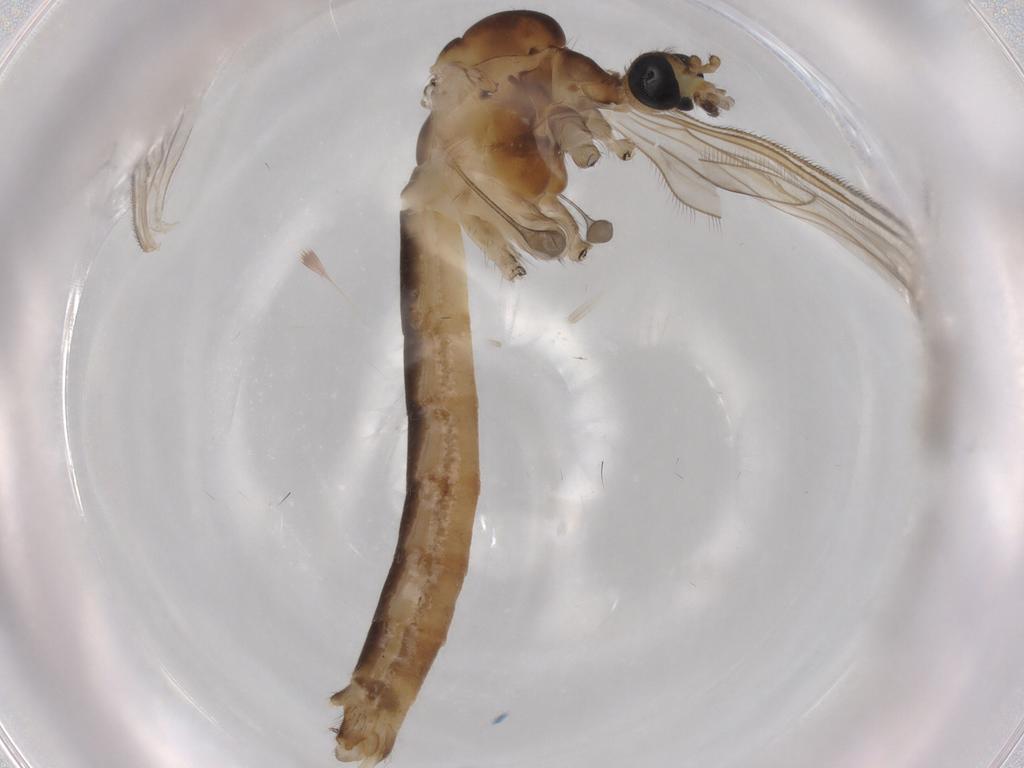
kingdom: Animalia
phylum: Arthropoda
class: Insecta
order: Diptera
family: Limoniidae
